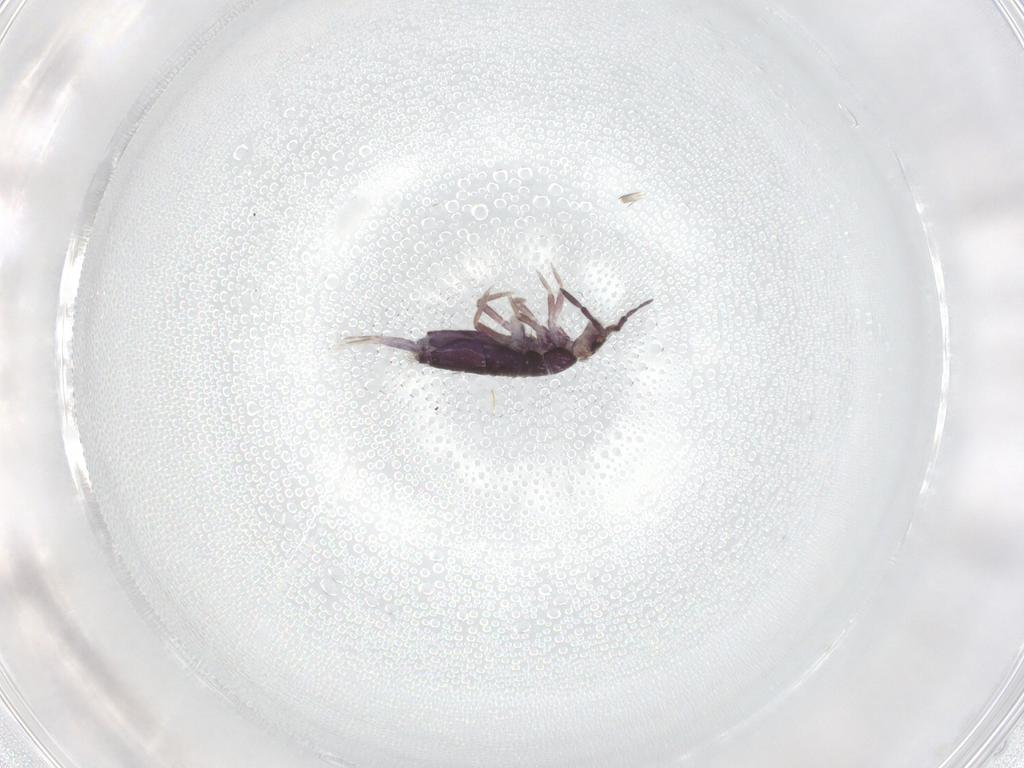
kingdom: Animalia
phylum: Arthropoda
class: Collembola
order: Entomobryomorpha
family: Entomobryidae
